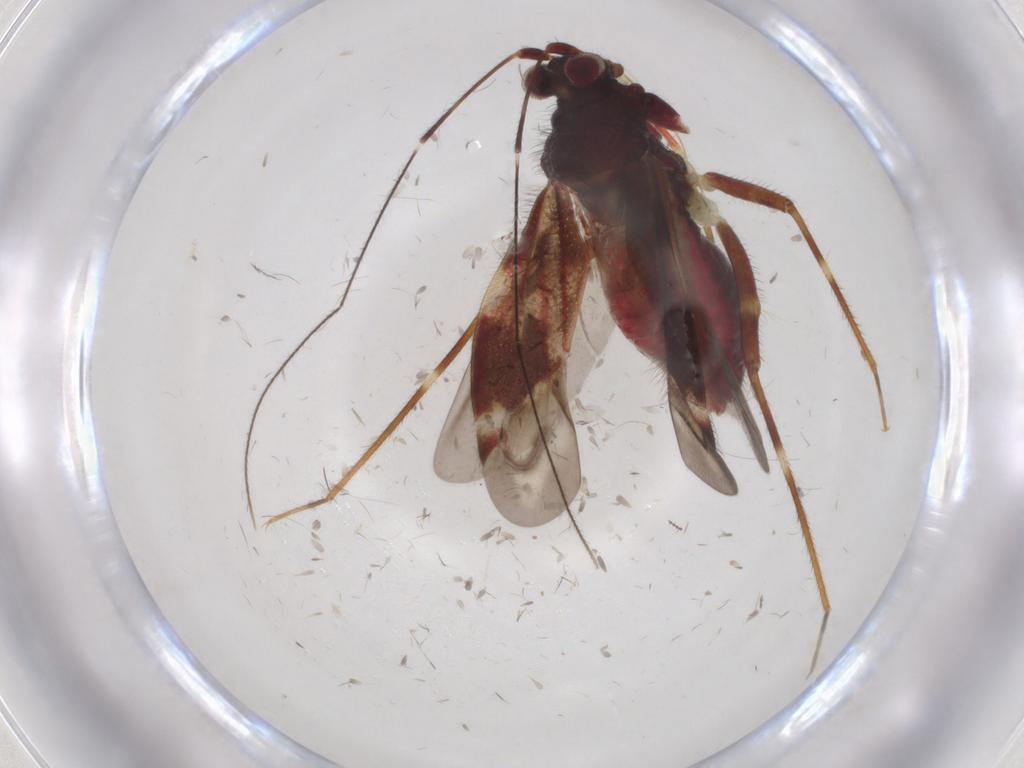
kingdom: Animalia
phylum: Arthropoda
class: Insecta
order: Hemiptera
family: Miridae
